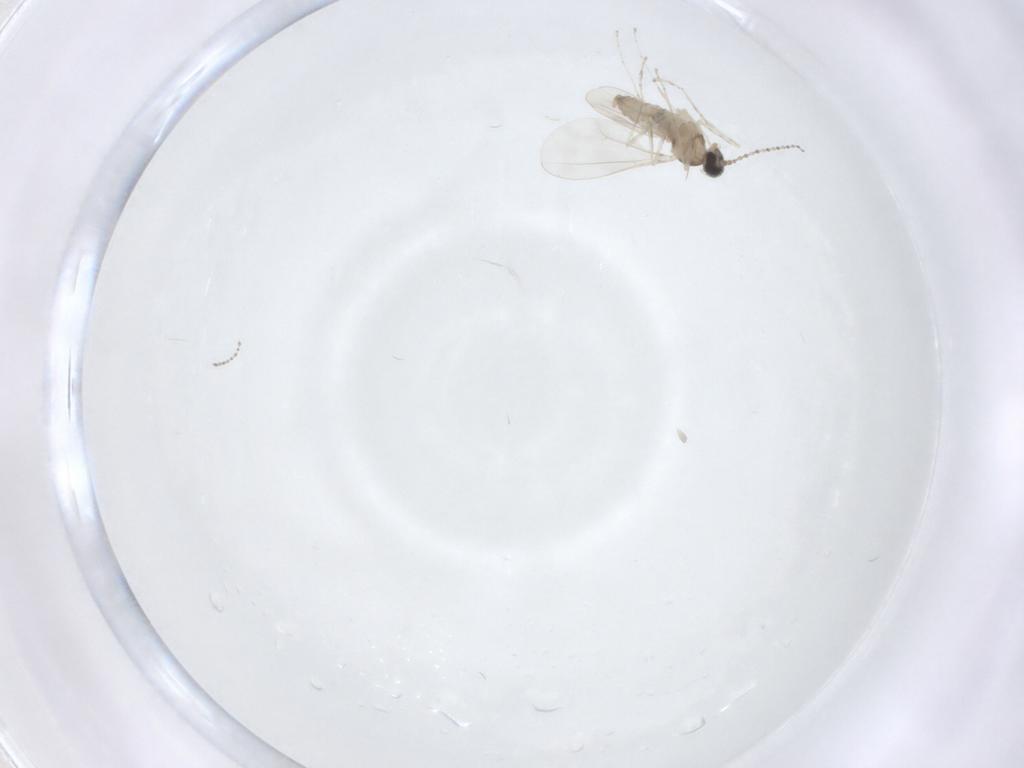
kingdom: Animalia
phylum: Arthropoda
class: Insecta
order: Diptera
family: Cecidomyiidae
